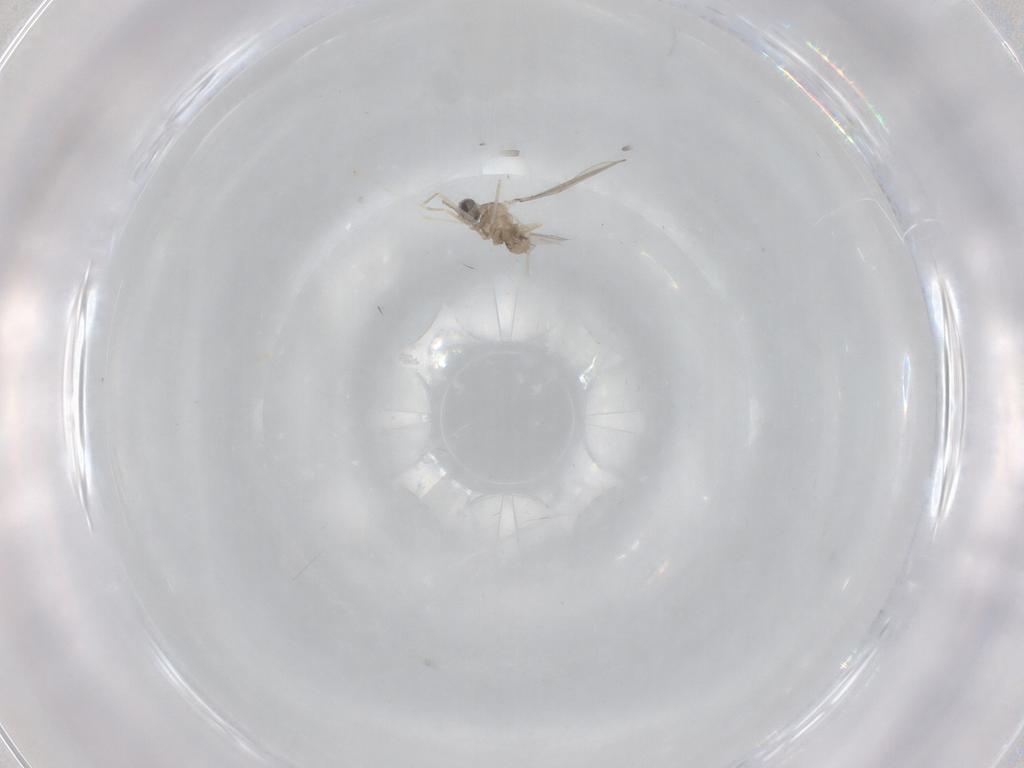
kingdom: Animalia
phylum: Arthropoda
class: Insecta
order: Diptera
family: Cecidomyiidae
